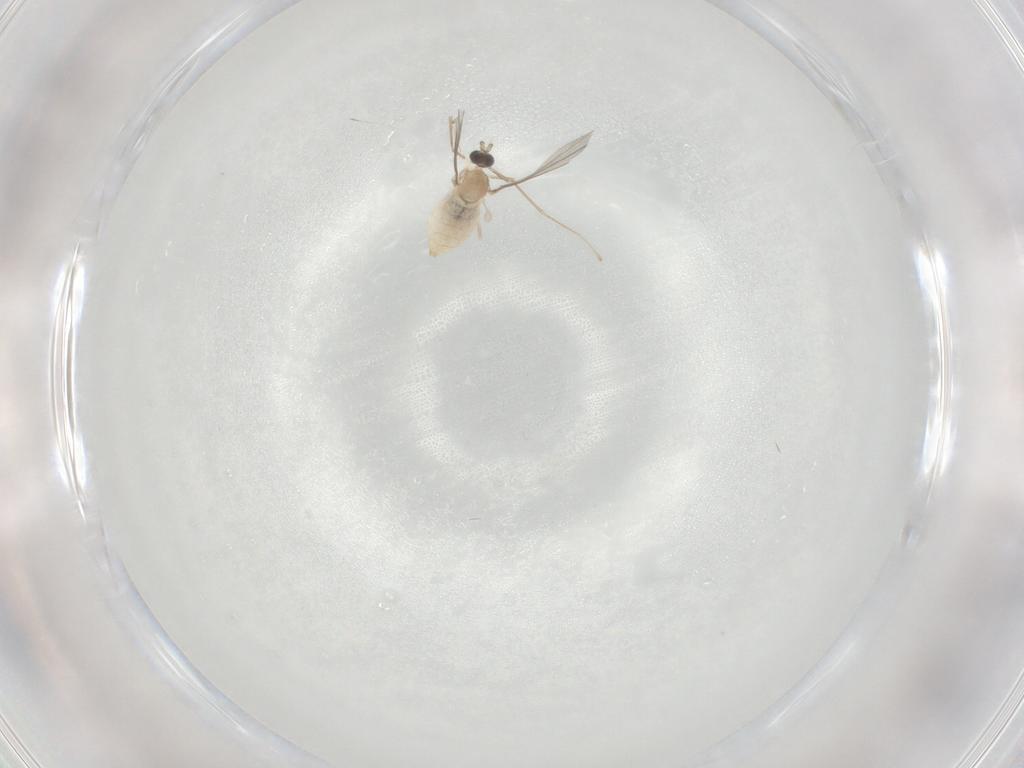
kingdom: Animalia
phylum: Arthropoda
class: Insecta
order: Diptera
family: Cecidomyiidae
